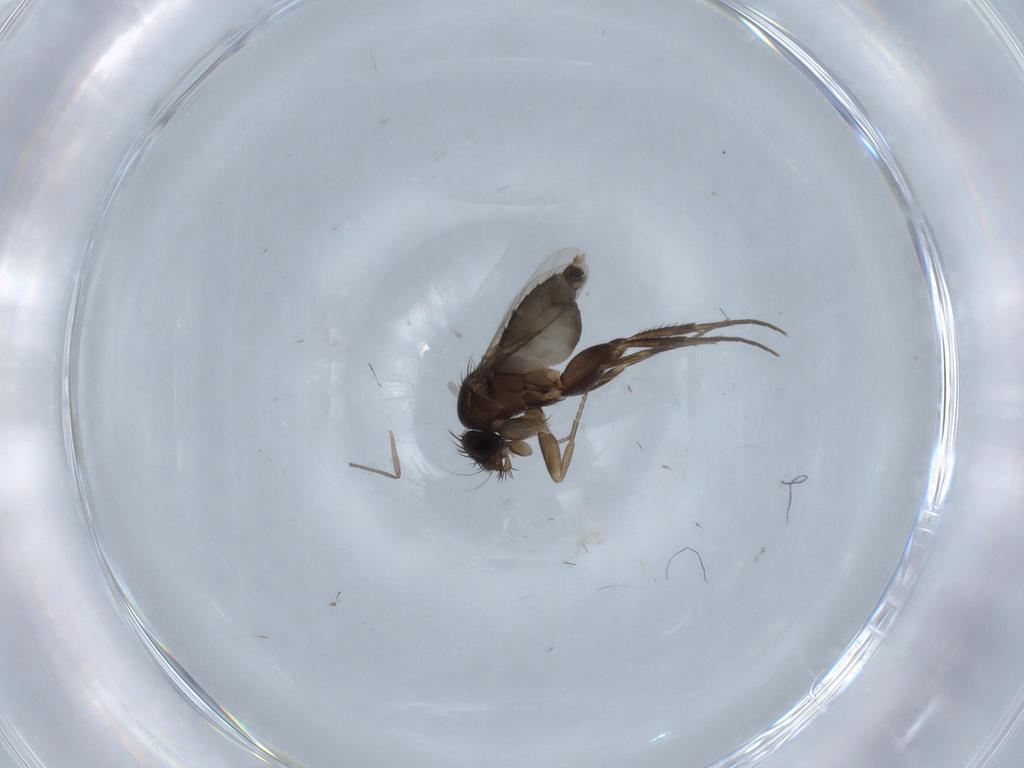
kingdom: Animalia
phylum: Arthropoda
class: Insecta
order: Diptera
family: Phoridae
